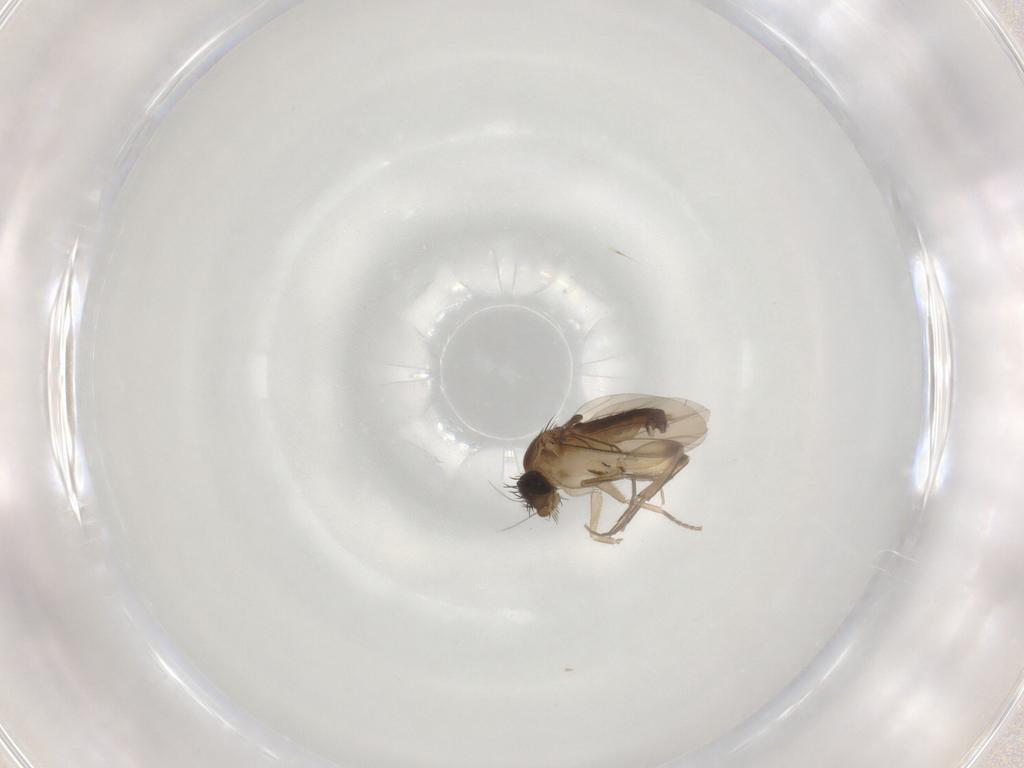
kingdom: Animalia
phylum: Arthropoda
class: Insecta
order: Diptera
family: Phoridae
